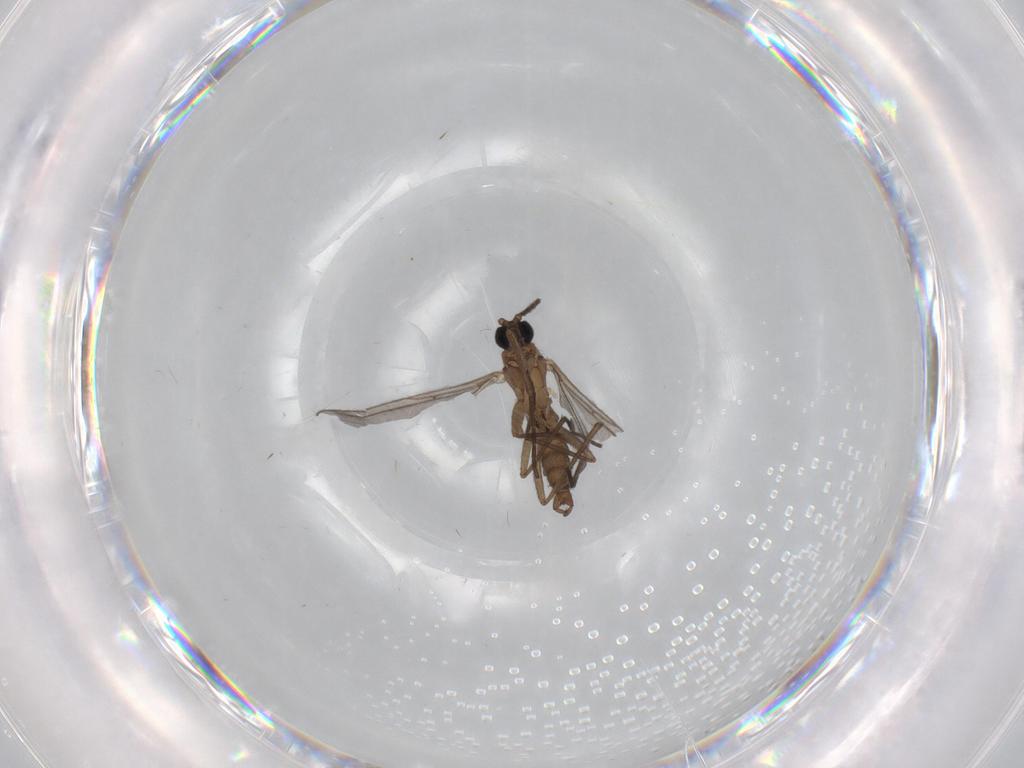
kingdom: Animalia
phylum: Arthropoda
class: Insecta
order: Diptera
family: Sciaridae
